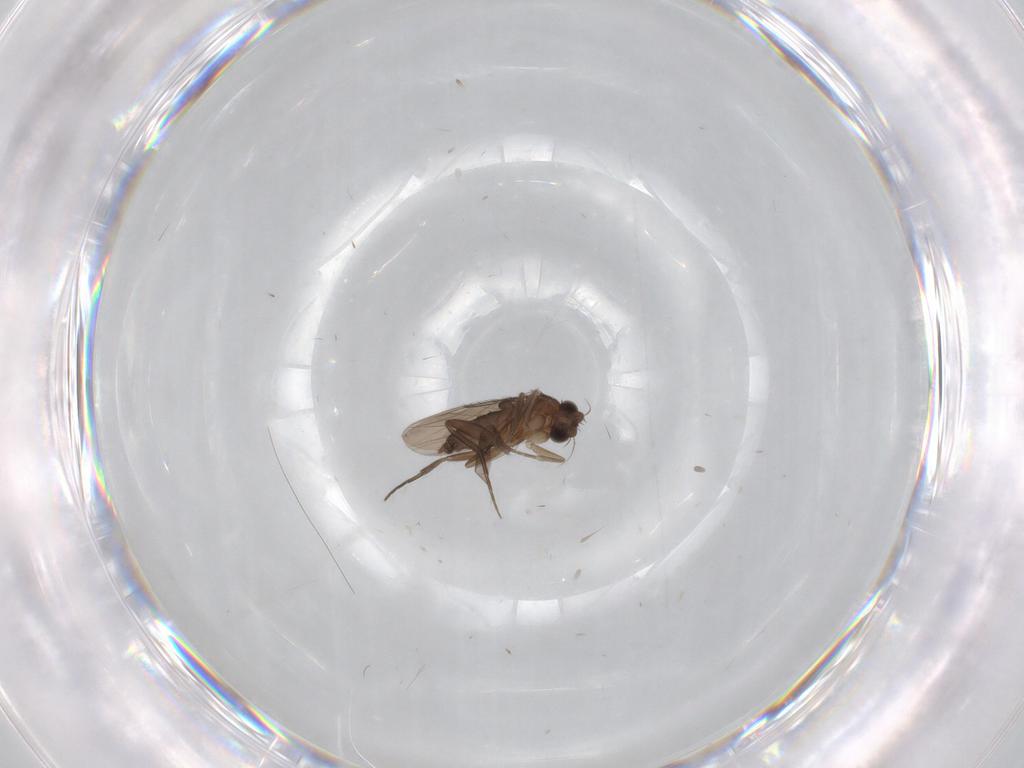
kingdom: Animalia
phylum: Arthropoda
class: Insecta
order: Diptera
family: Phoridae
